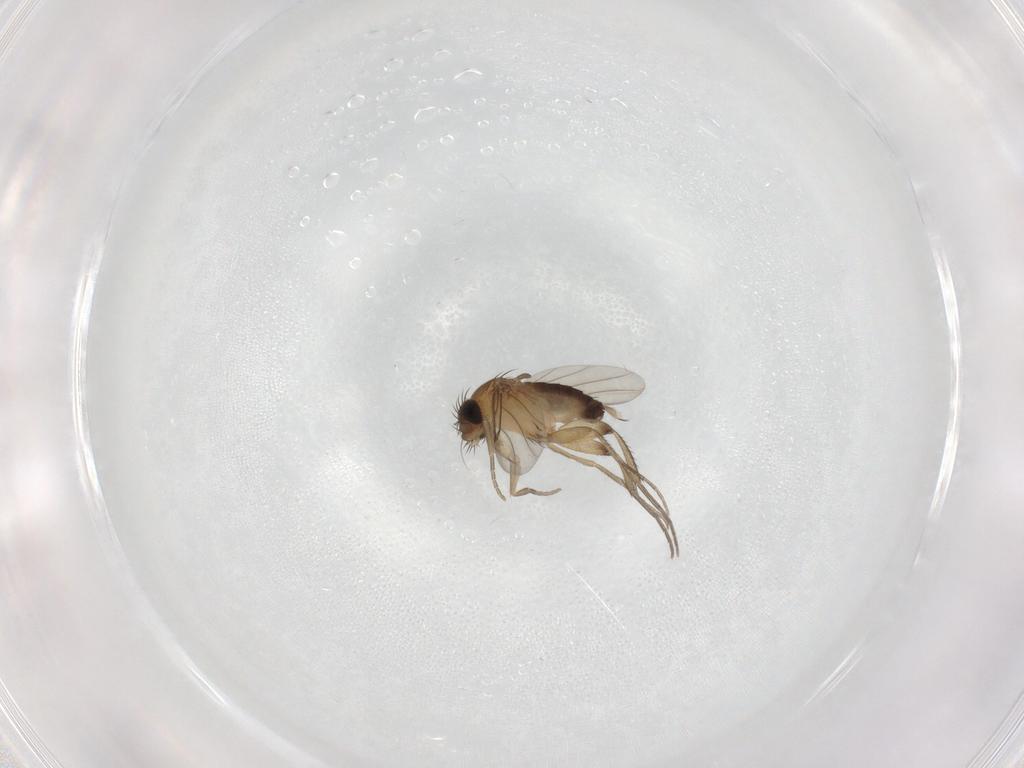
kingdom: Animalia
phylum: Arthropoda
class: Insecta
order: Diptera
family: Phoridae
